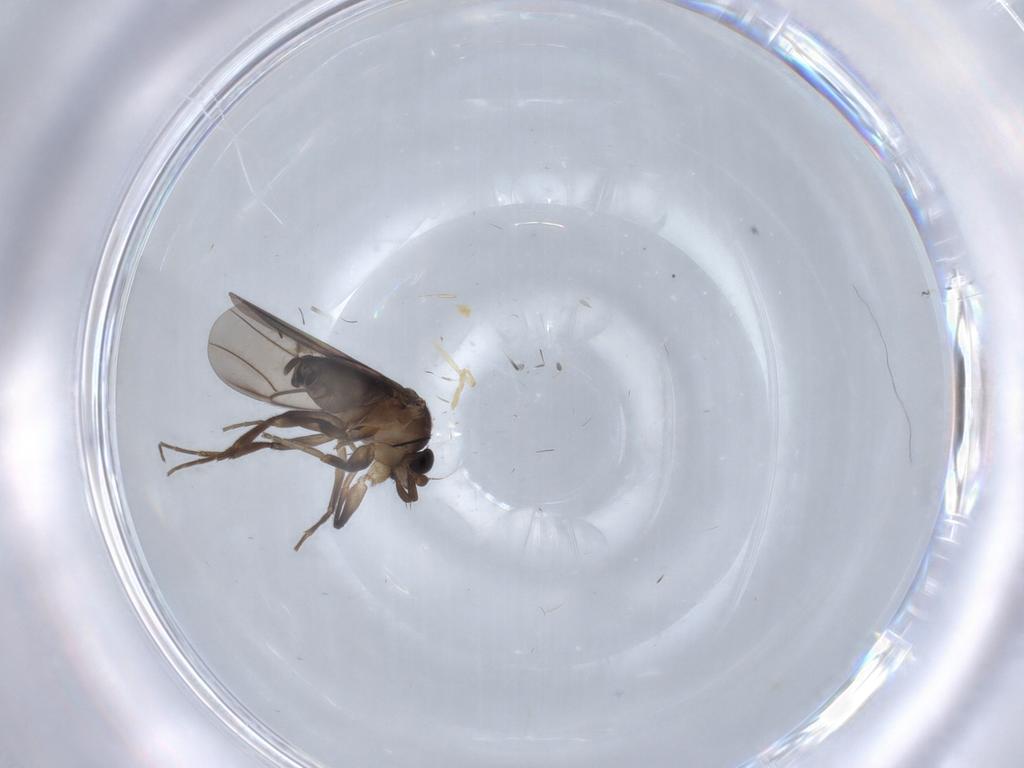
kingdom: Animalia
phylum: Arthropoda
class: Insecta
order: Diptera
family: Phoridae
